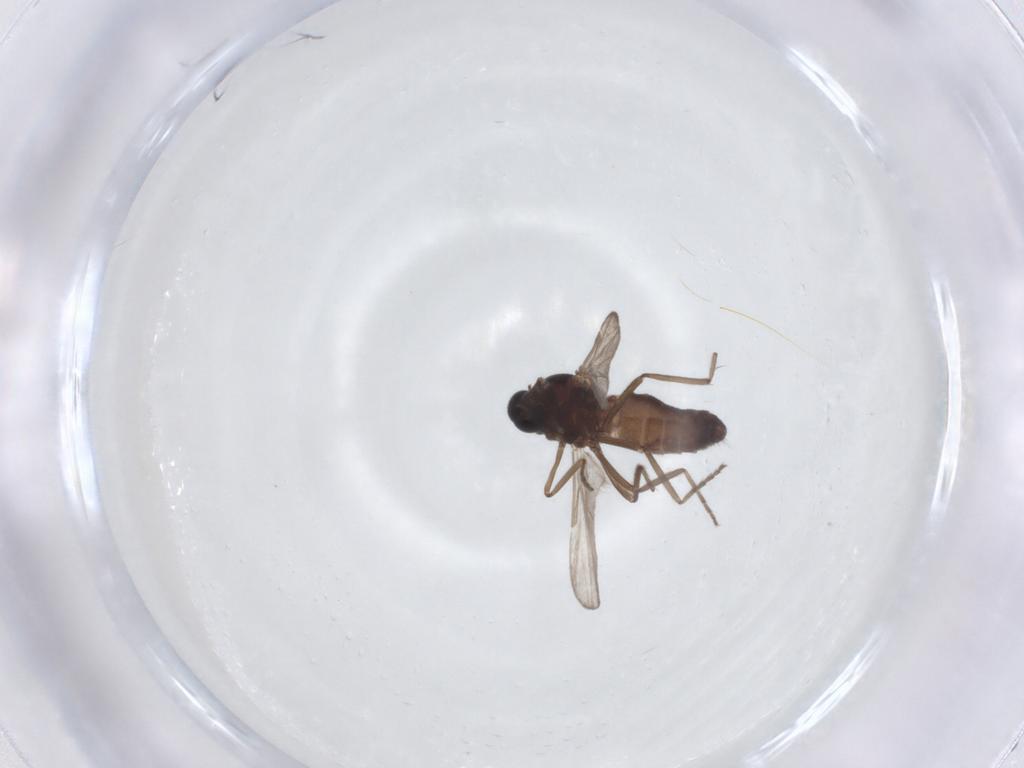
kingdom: Animalia
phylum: Arthropoda
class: Insecta
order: Diptera
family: Ceratopogonidae
